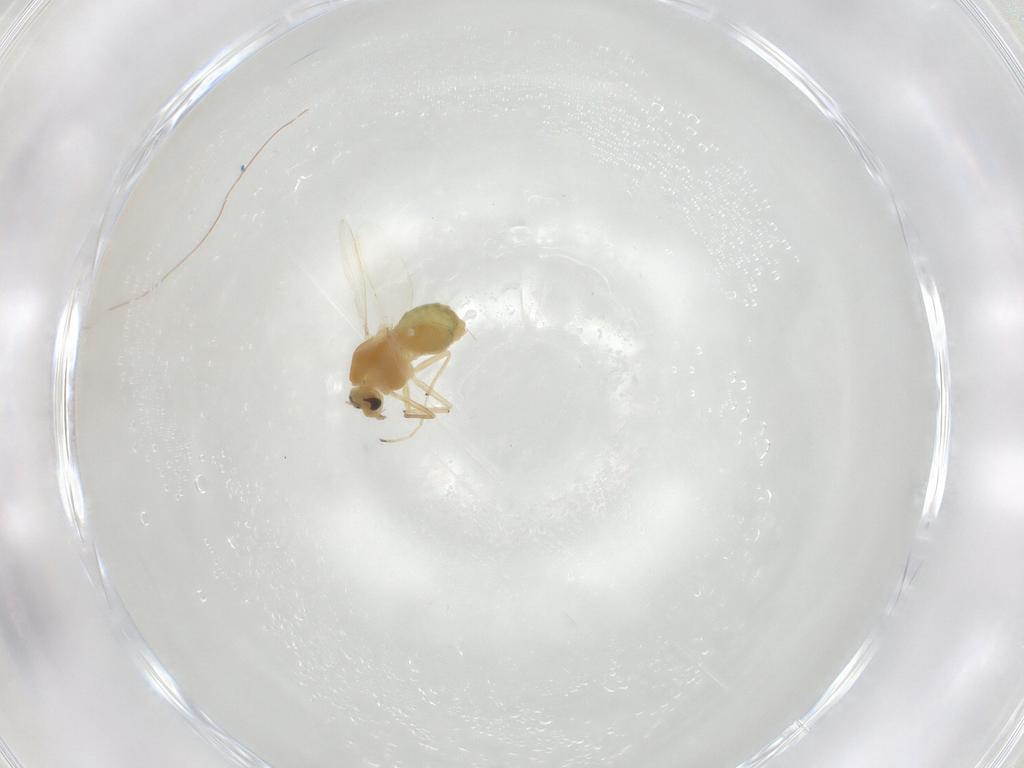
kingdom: Animalia
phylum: Arthropoda
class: Insecta
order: Diptera
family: Chironomidae
